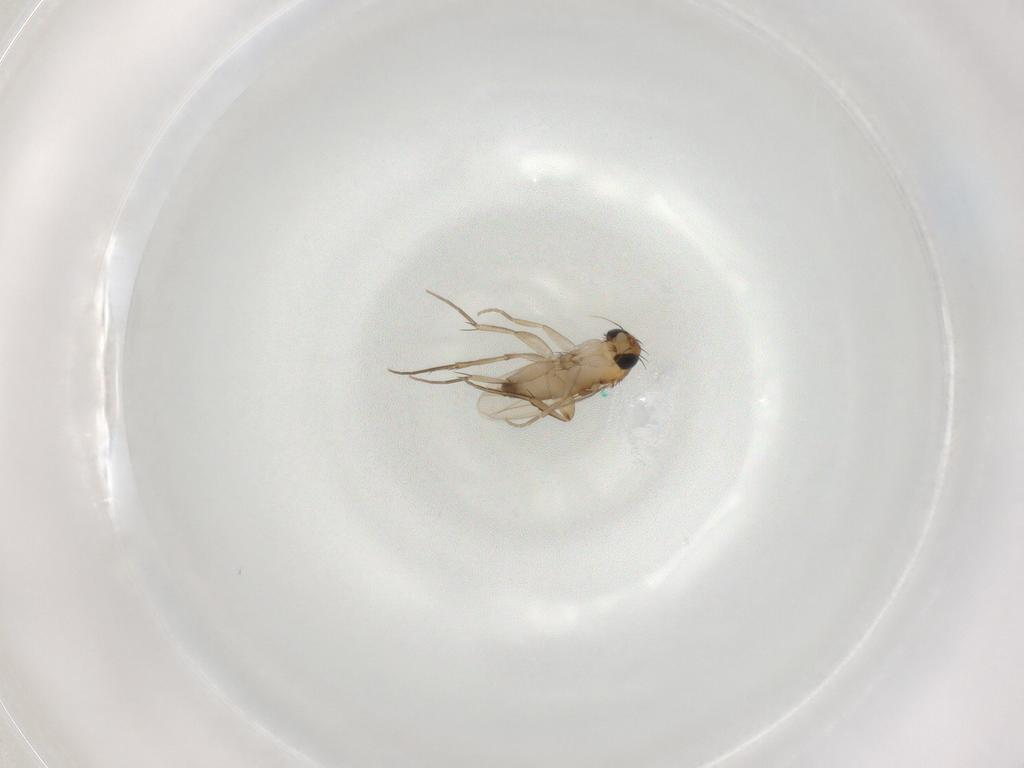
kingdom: Animalia
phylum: Arthropoda
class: Insecta
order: Diptera
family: Phoridae
